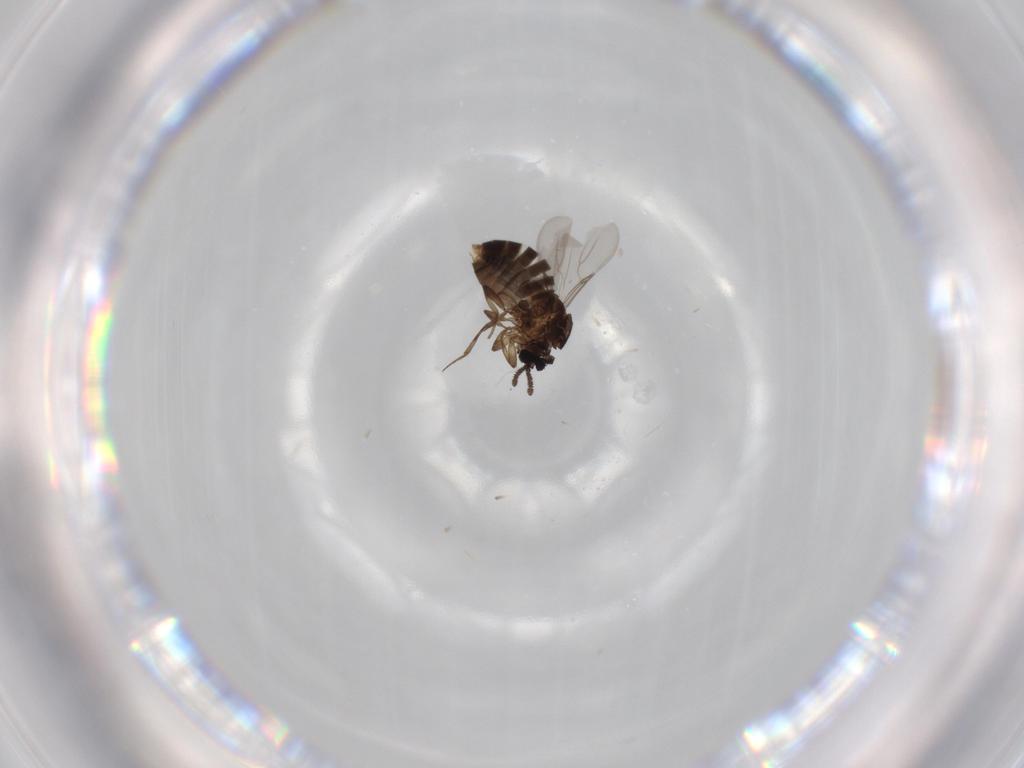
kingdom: Animalia
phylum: Arthropoda
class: Insecta
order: Diptera
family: Scatopsidae
